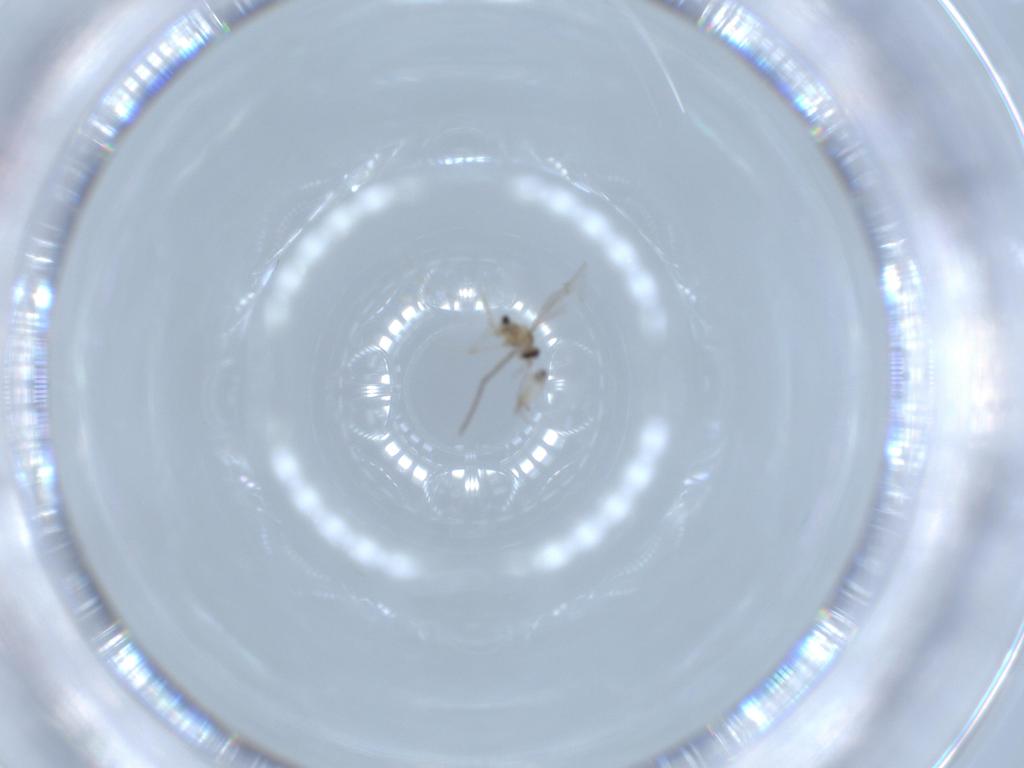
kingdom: Animalia
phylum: Arthropoda
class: Insecta
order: Diptera
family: Cecidomyiidae
